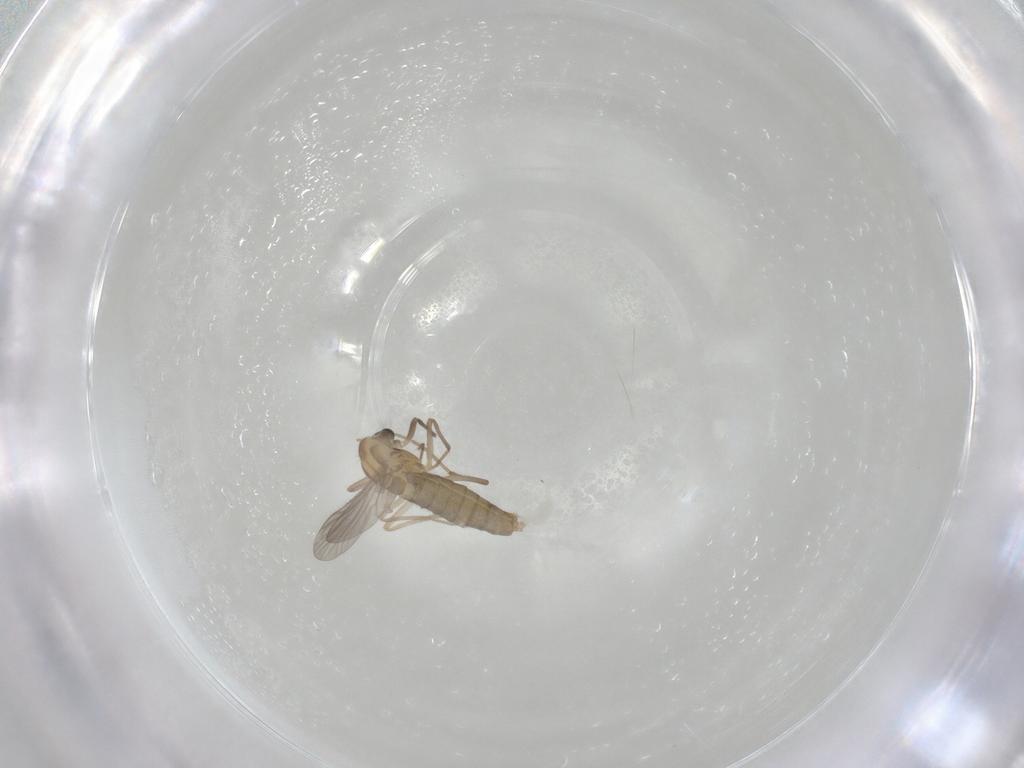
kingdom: Animalia
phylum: Arthropoda
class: Insecta
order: Diptera
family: Chironomidae
